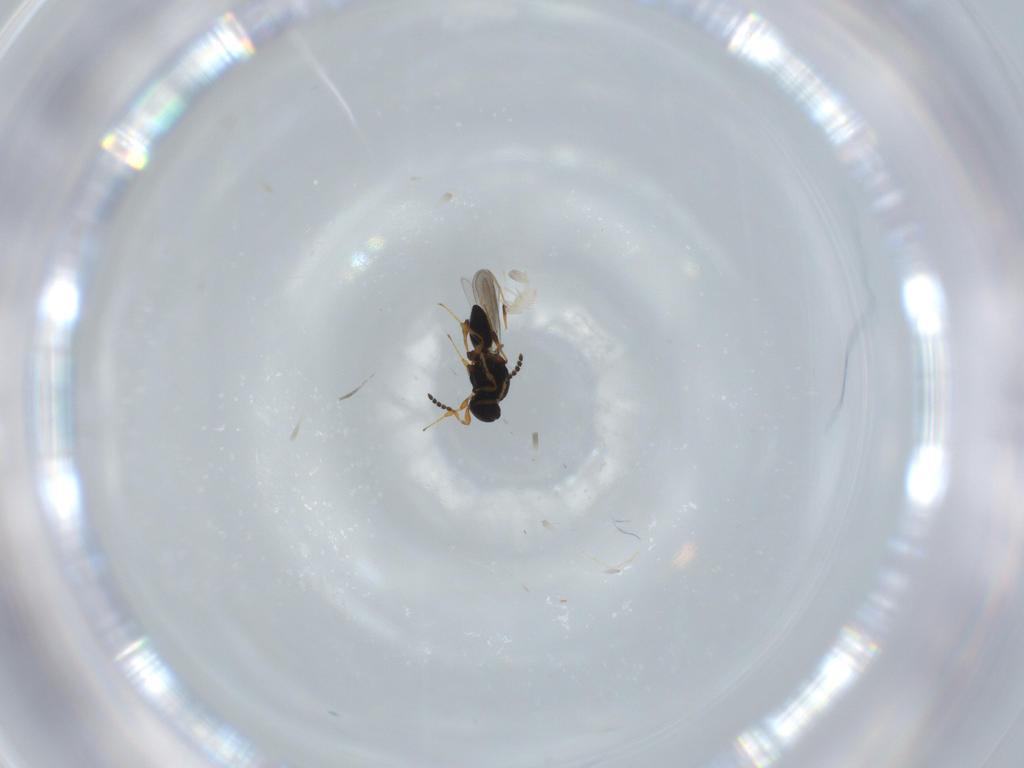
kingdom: Animalia
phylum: Arthropoda
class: Insecta
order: Hymenoptera
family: Platygastridae
